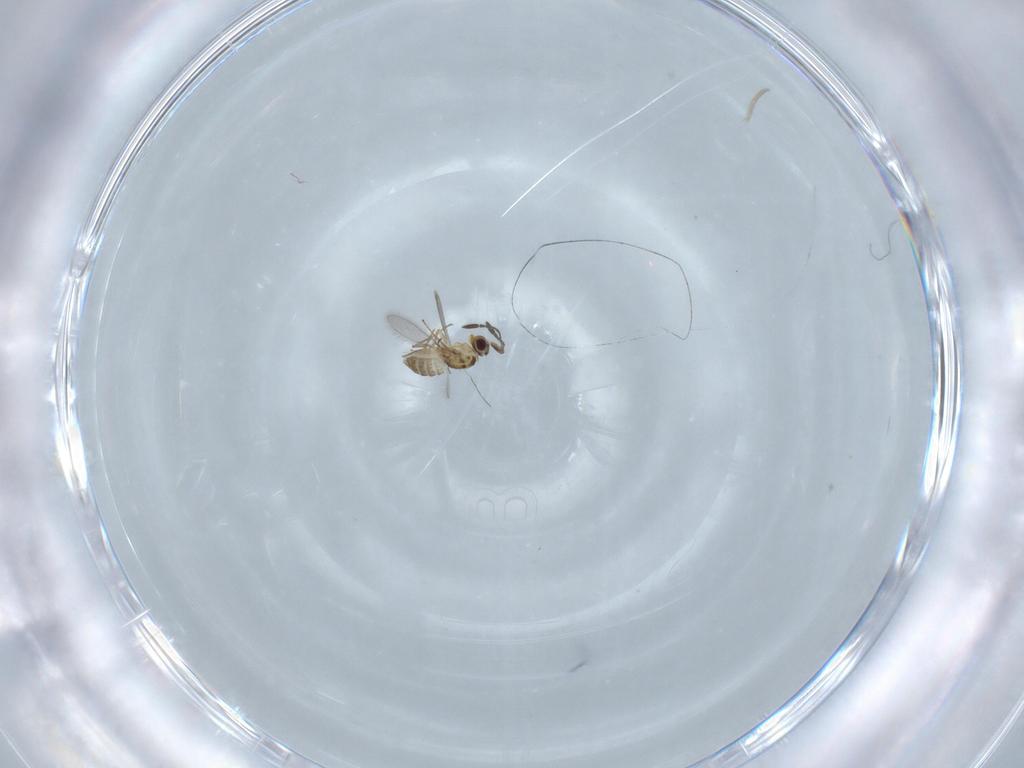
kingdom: Animalia
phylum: Arthropoda
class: Insecta
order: Hymenoptera
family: Mymaridae
